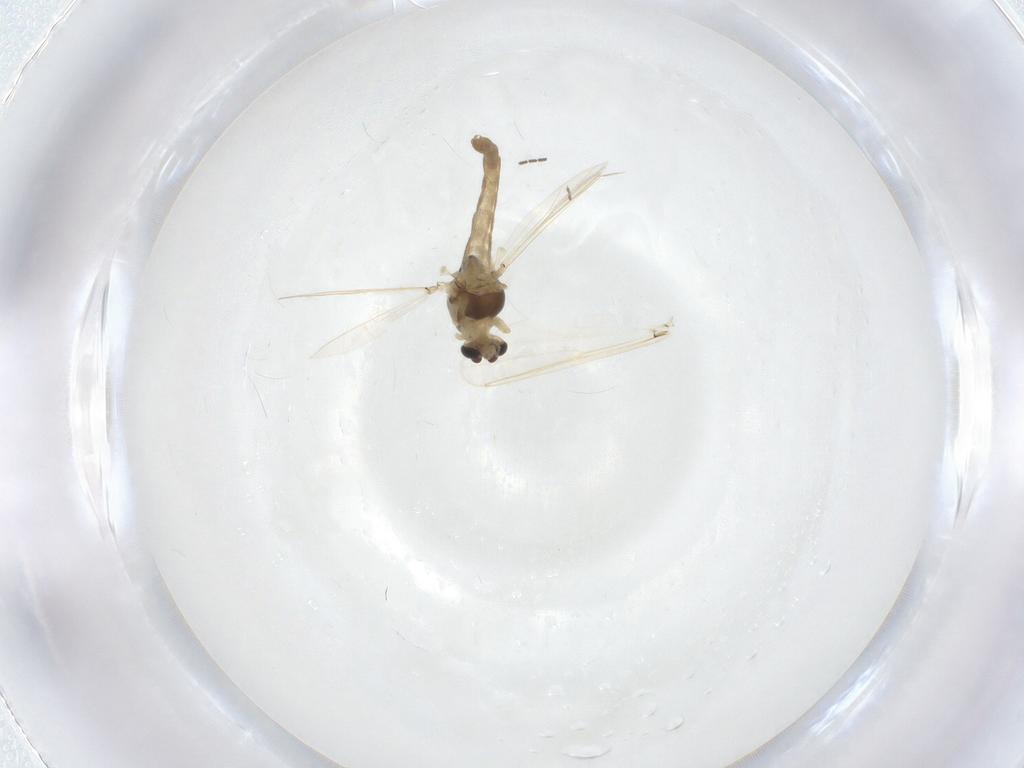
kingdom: Animalia
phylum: Arthropoda
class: Insecta
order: Diptera
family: Chironomidae
